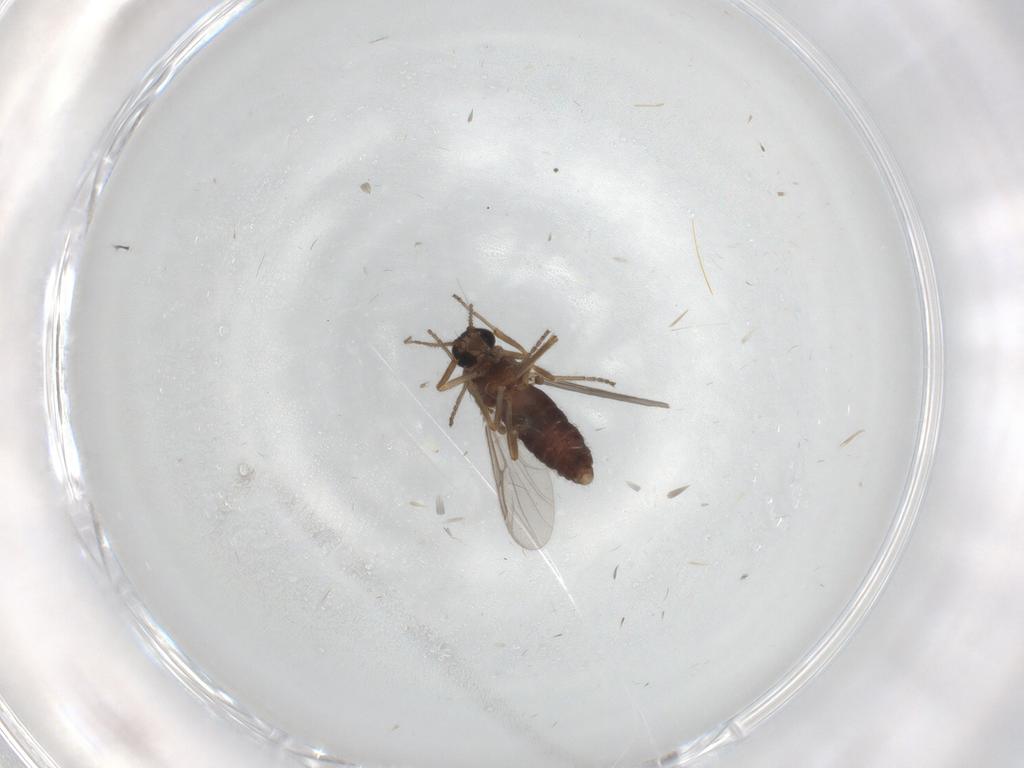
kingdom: Animalia
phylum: Arthropoda
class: Insecta
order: Diptera
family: Ceratopogonidae
